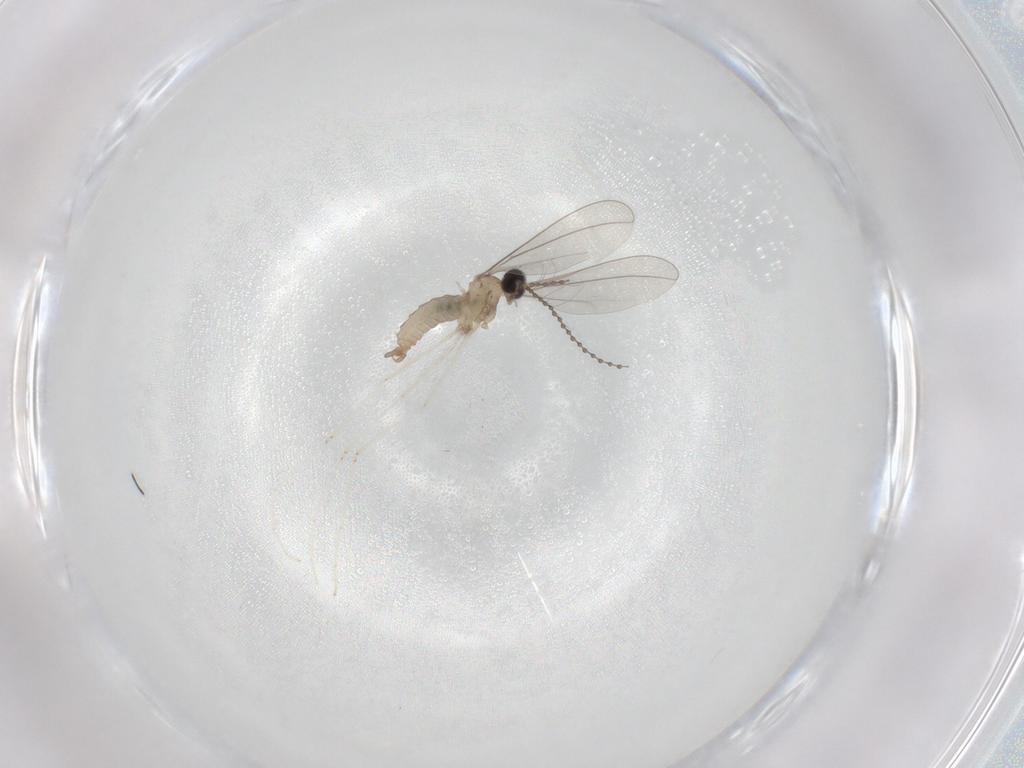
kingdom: Animalia
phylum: Arthropoda
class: Insecta
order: Diptera
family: Cecidomyiidae
